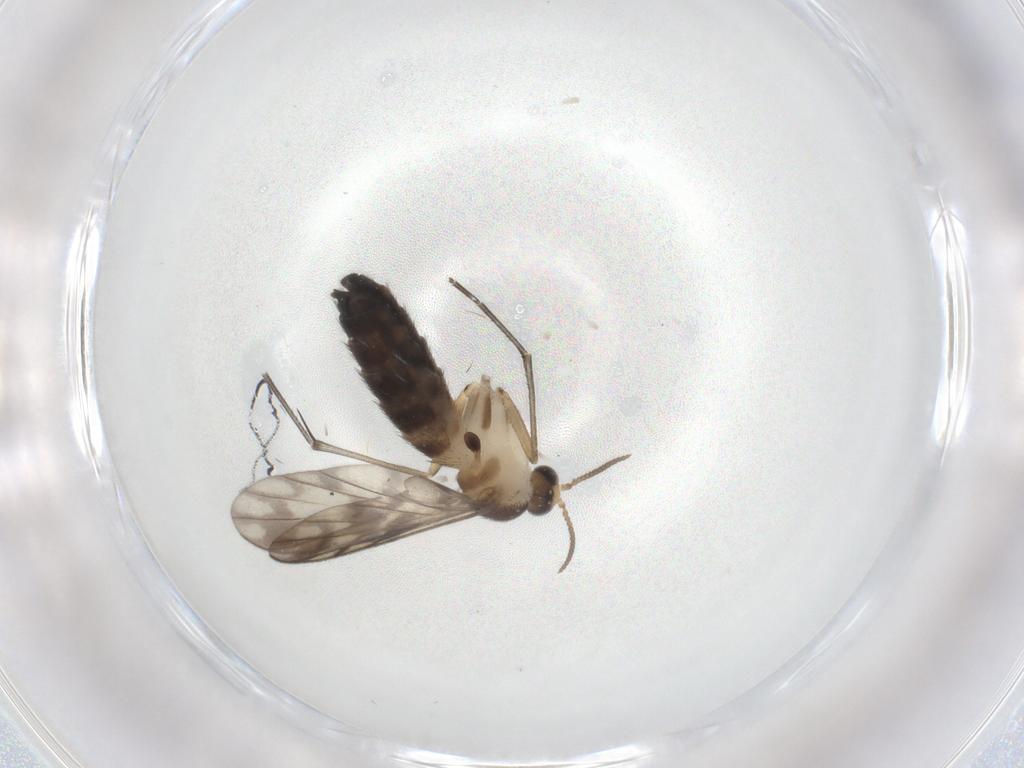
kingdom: Animalia
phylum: Arthropoda
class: Insecta
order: Diptera
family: Keroplatidae
